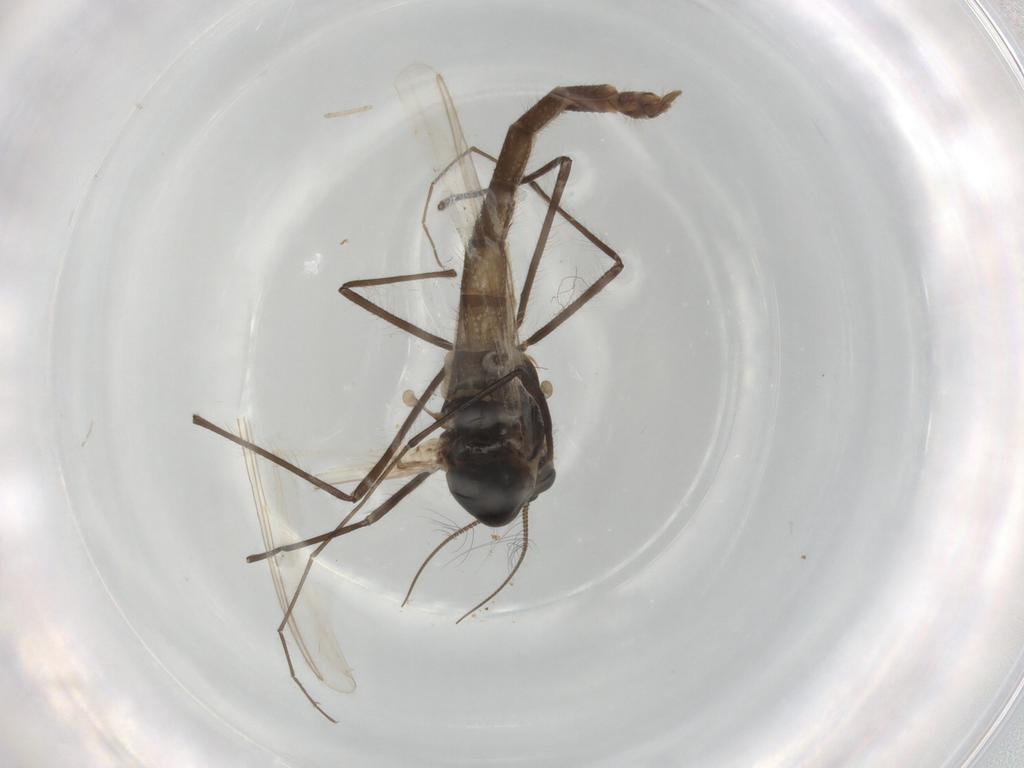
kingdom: Animalia
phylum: Arthropoda
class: Insecta
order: Diptera
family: Chironomidae
